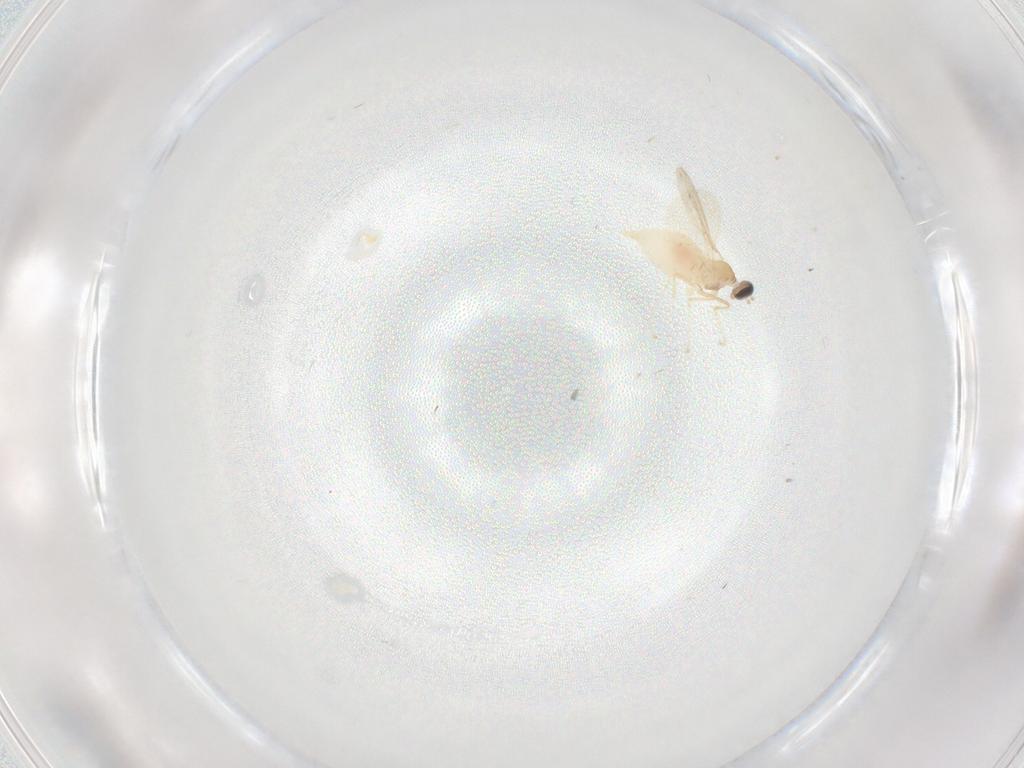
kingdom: Animalia
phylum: Arthropoda
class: Insecta
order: Diptera
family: Cecidomyiidae
